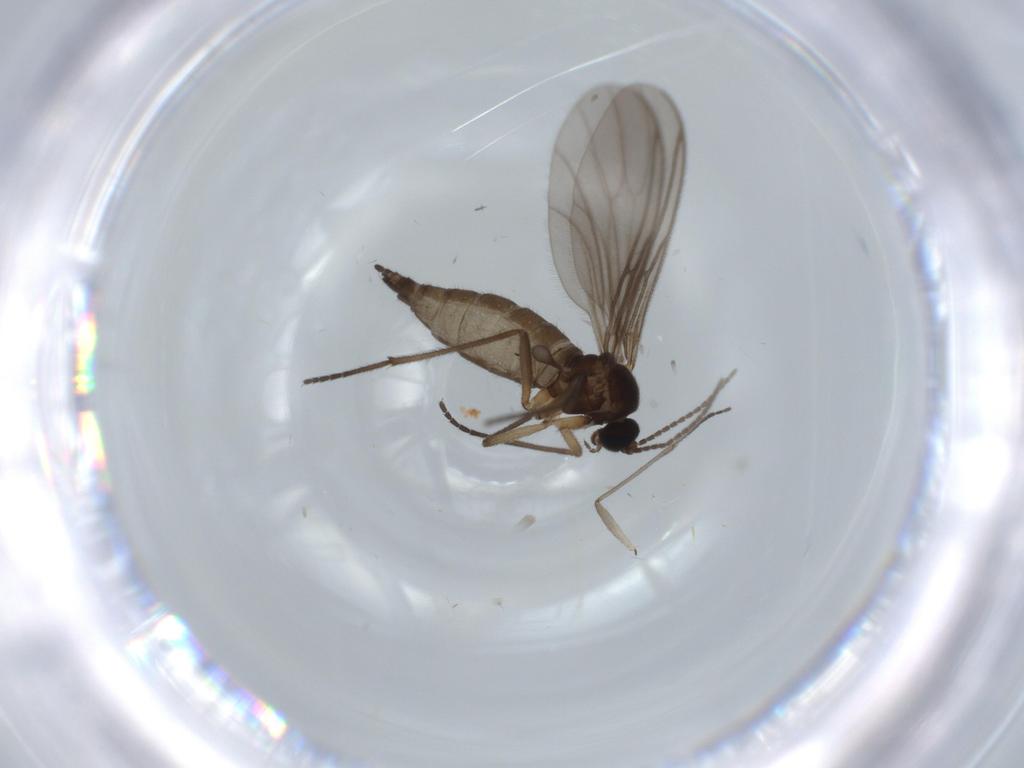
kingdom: Animalia
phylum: Arthropoda
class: Insecta
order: Diptera
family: Sciaridae
